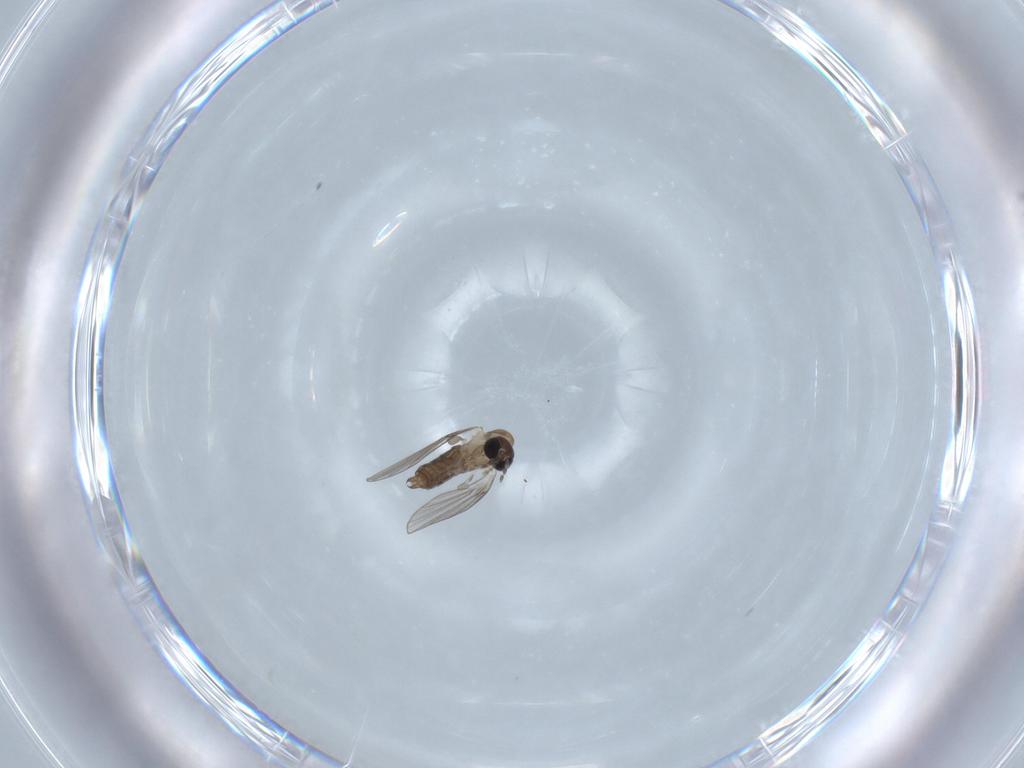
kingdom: Animalia
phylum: Arthropoda
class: Insecta
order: Diptera
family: Psychodidae
